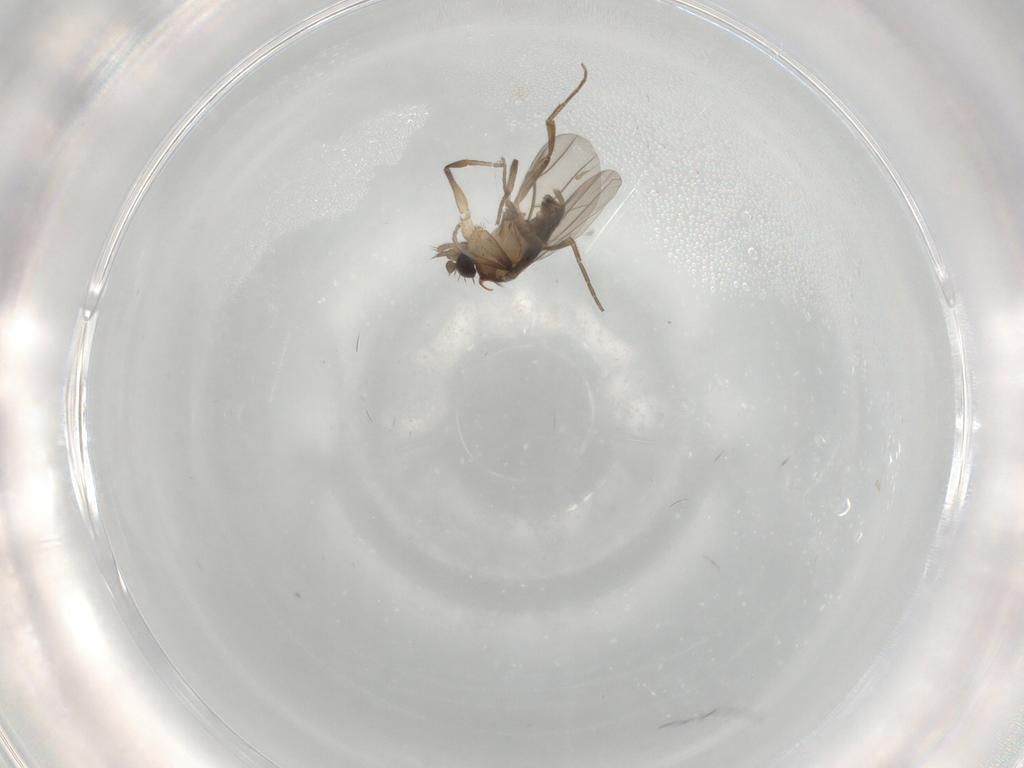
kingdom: Animalia
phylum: Arthropoda
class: Insecta
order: Diptera
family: Phoridae
